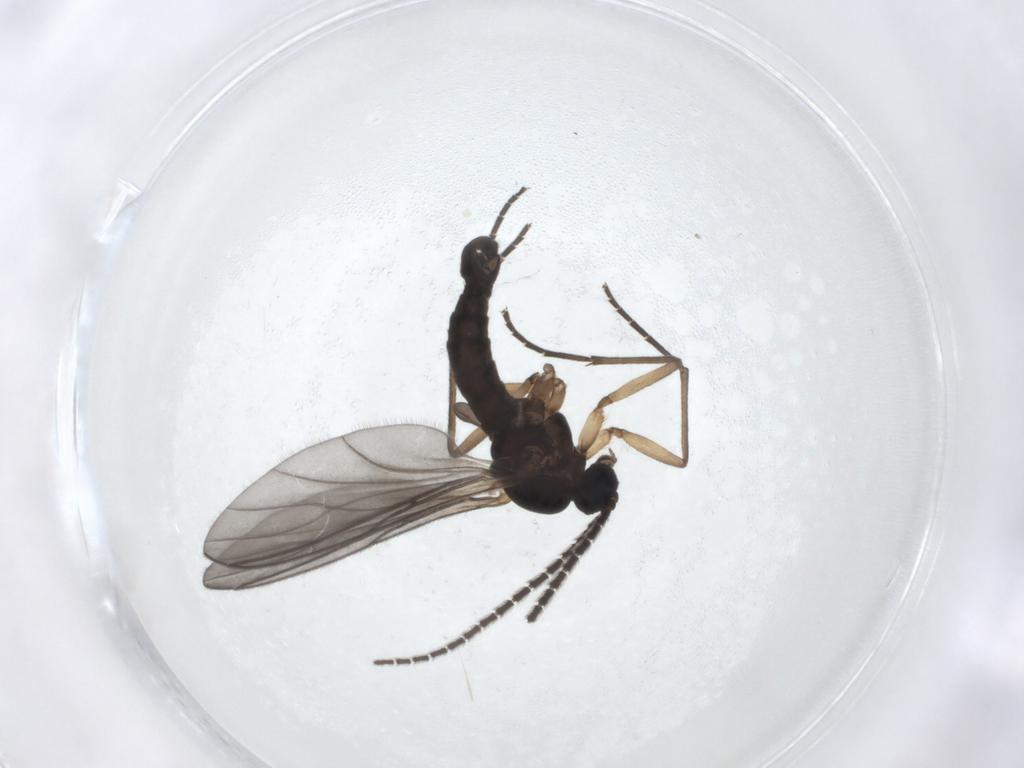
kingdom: Animalia
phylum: Arthropoda
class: Insecta
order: Diptera
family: Sciaridae
